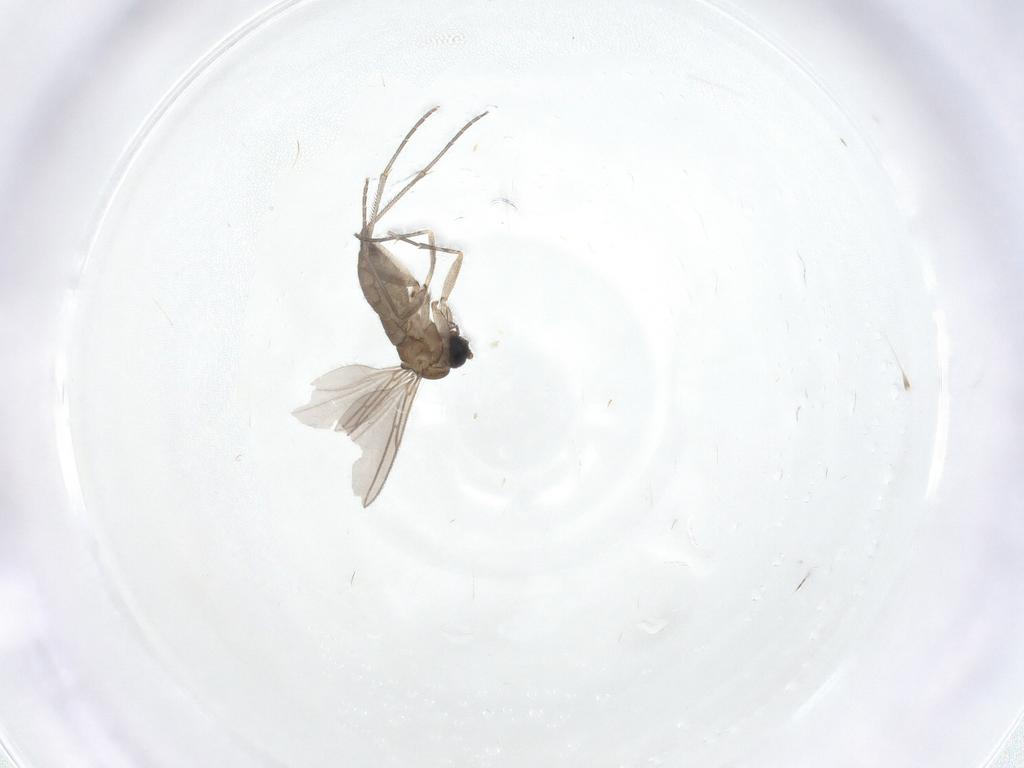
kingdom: Animalia
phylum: Arthropoda
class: Insecta
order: Diptera
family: Sciaridae
